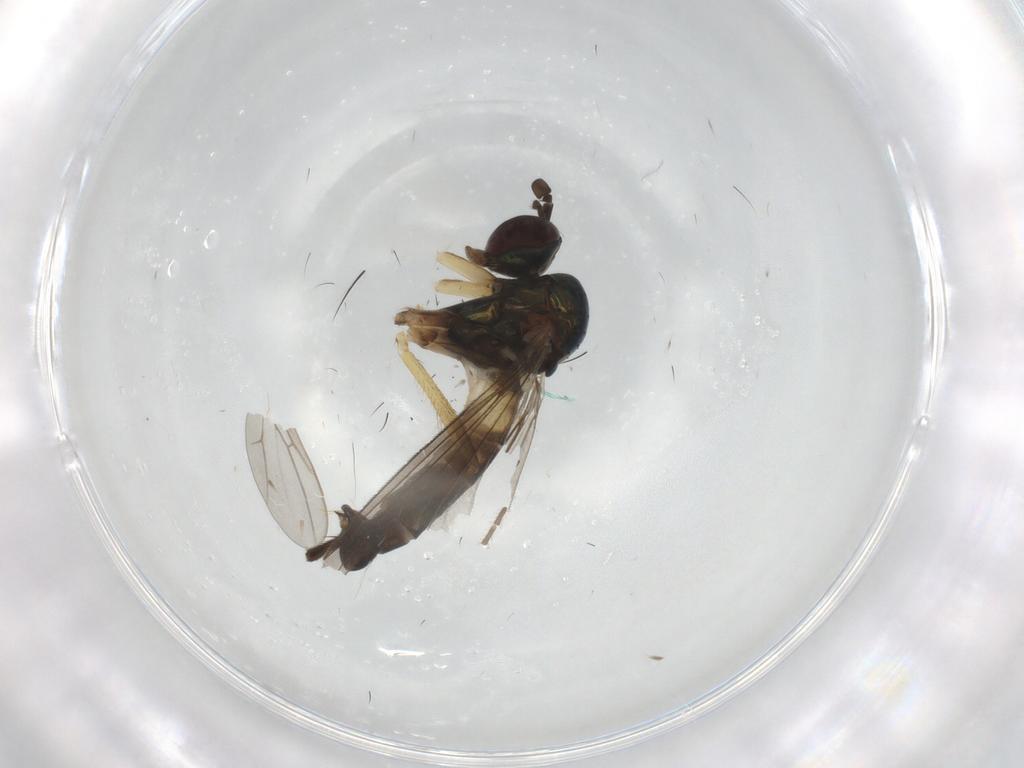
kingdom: Animalia
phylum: Arthropoda
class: Insecta
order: Diptera
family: Dolichopodidae
